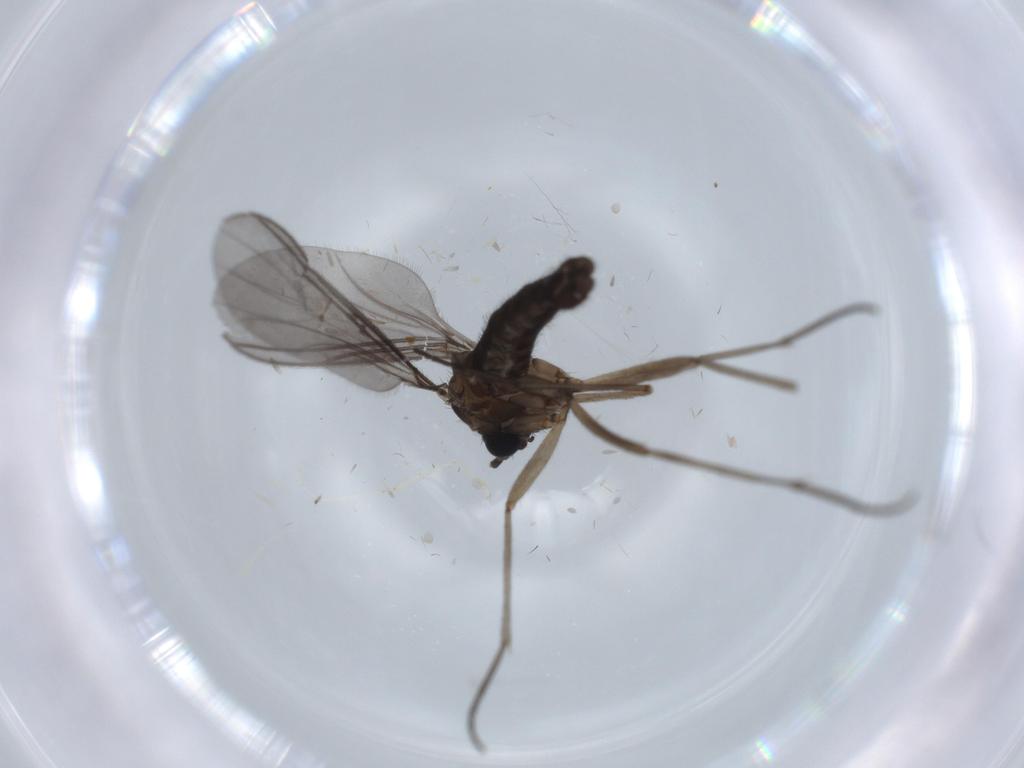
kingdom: Animalia
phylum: Arthropoda
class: Insecta
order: Diptera
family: Sciaridae
